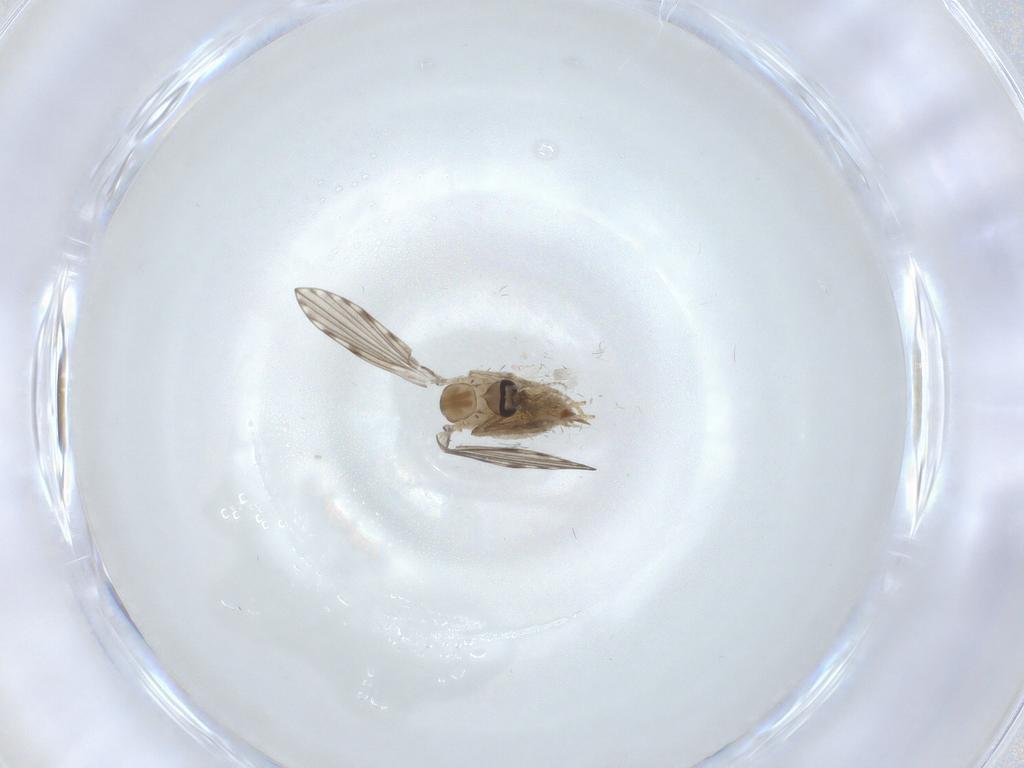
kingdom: Animalia
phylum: Arthropoda
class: Insecta
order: Diptera
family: Psychodidae
